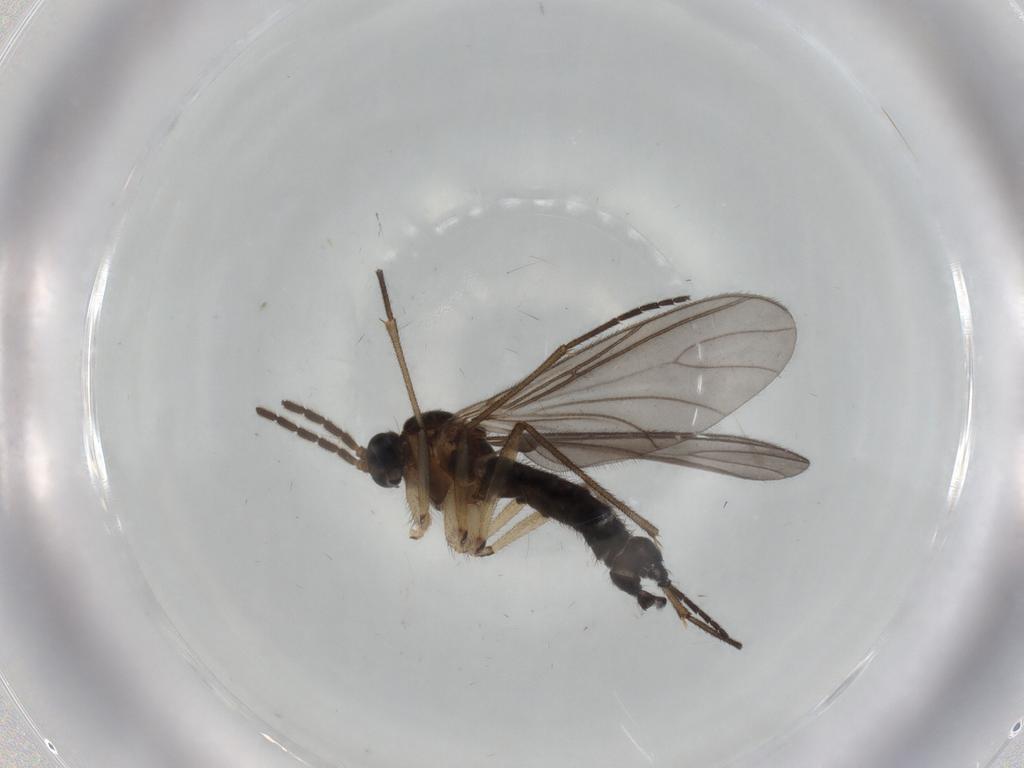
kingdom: Animalia
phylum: Arthropoda
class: Insecta
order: Diptera
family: Sciaridae
